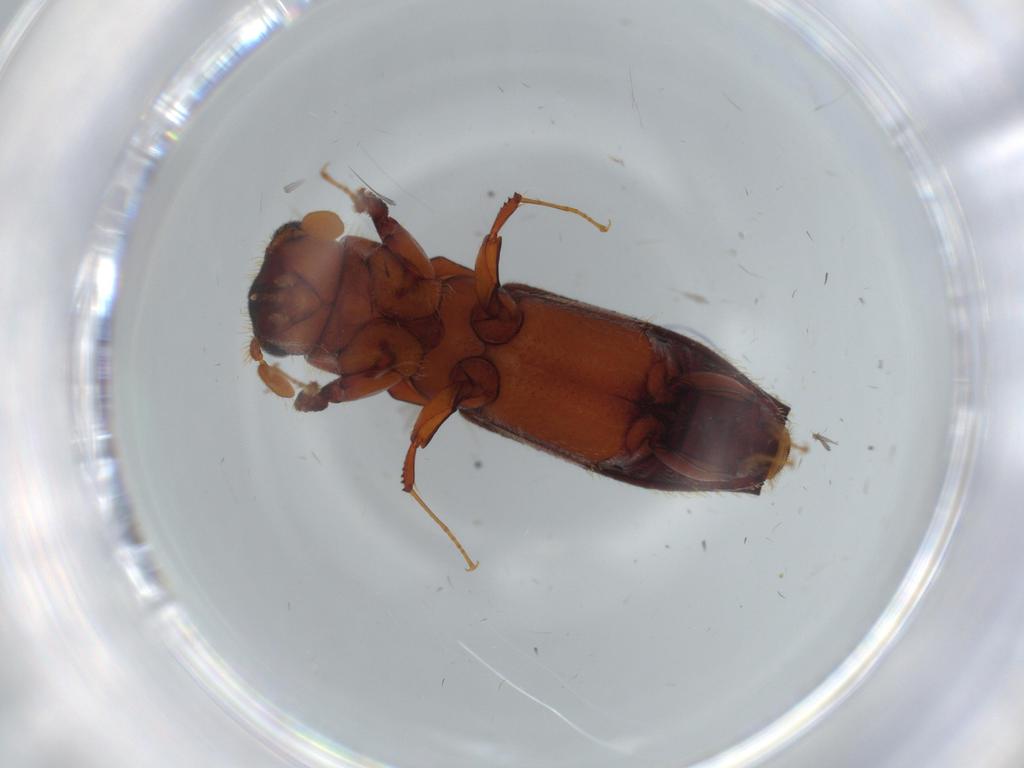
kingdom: Animalia
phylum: Arthropoda
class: Insecta
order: Coleoptera
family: Curculionidae
